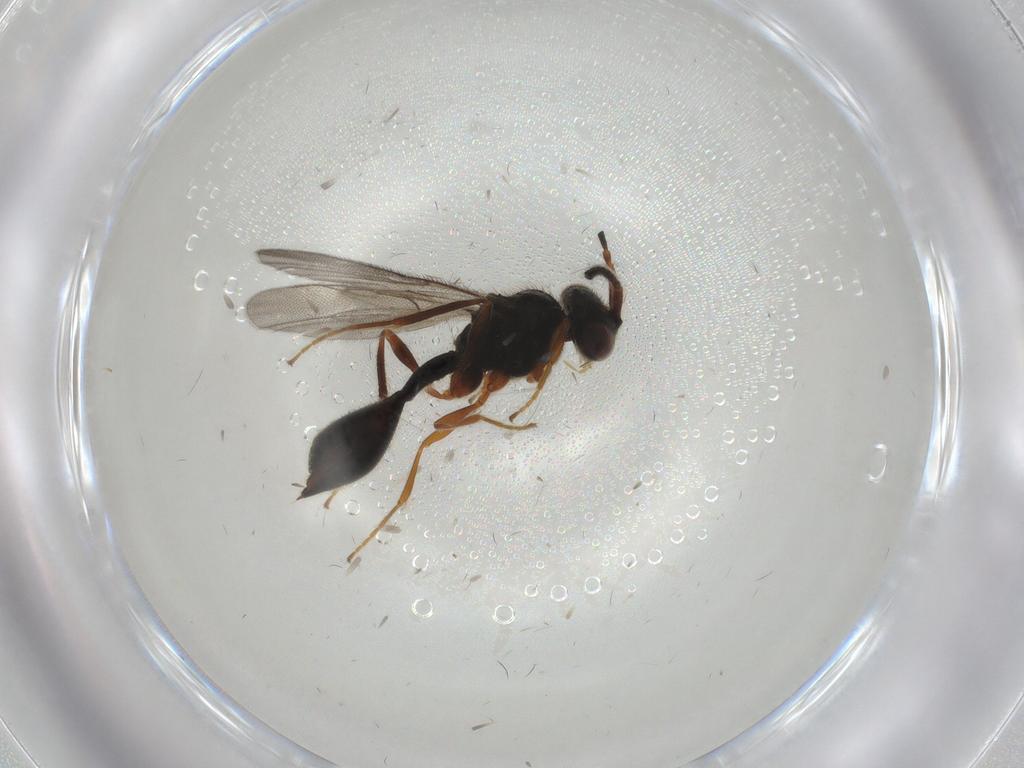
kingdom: Animalia
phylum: Arthropoda
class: Insecta
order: Hymenoptera
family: Diapriidae
